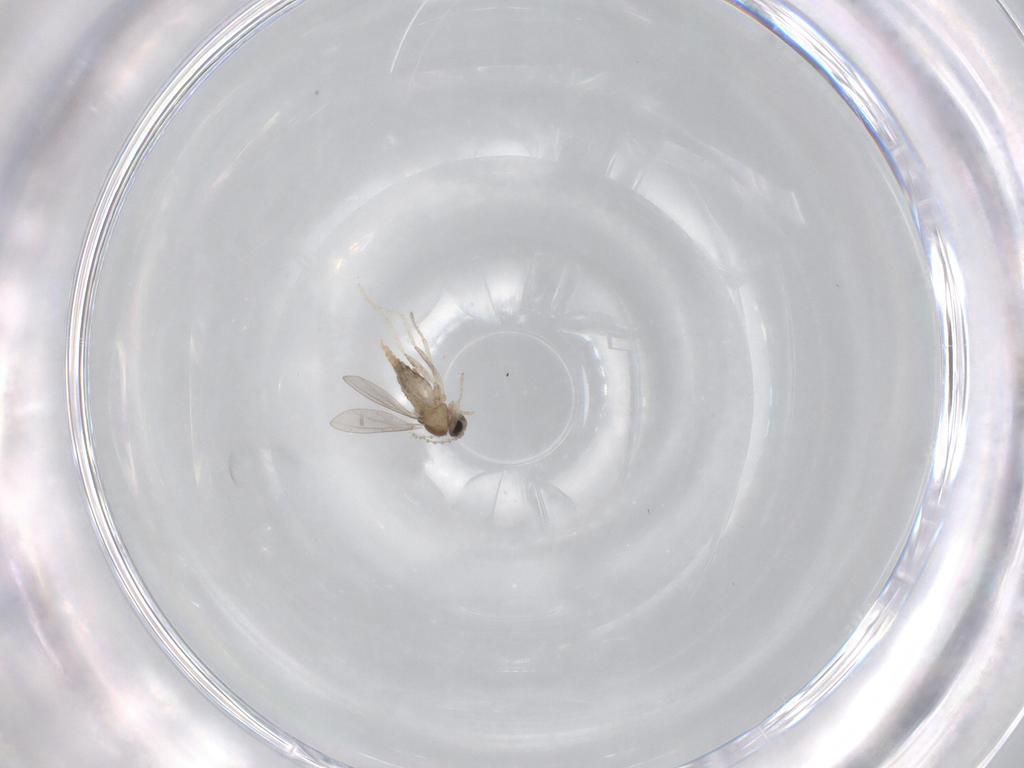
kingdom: Animalia
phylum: Arthropoda
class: Insecta
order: Diptera
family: Cecidomyiidae
